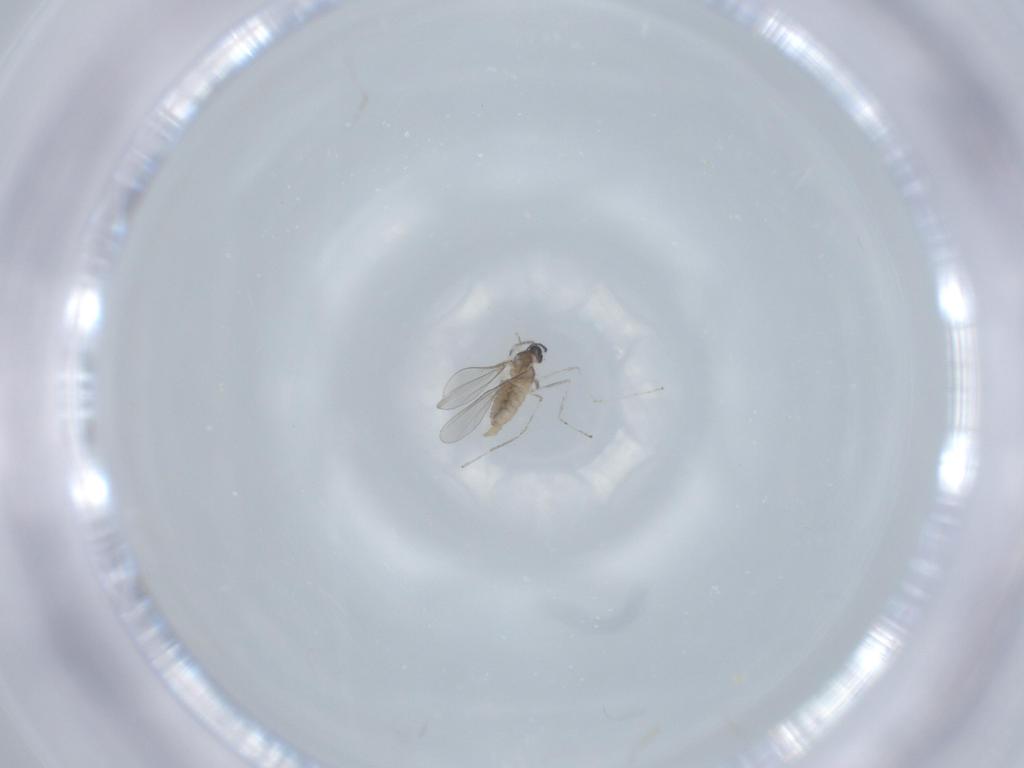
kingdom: Animalia
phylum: Arthropoda
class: Insecta
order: Diptera
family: Cecidomyiidae
